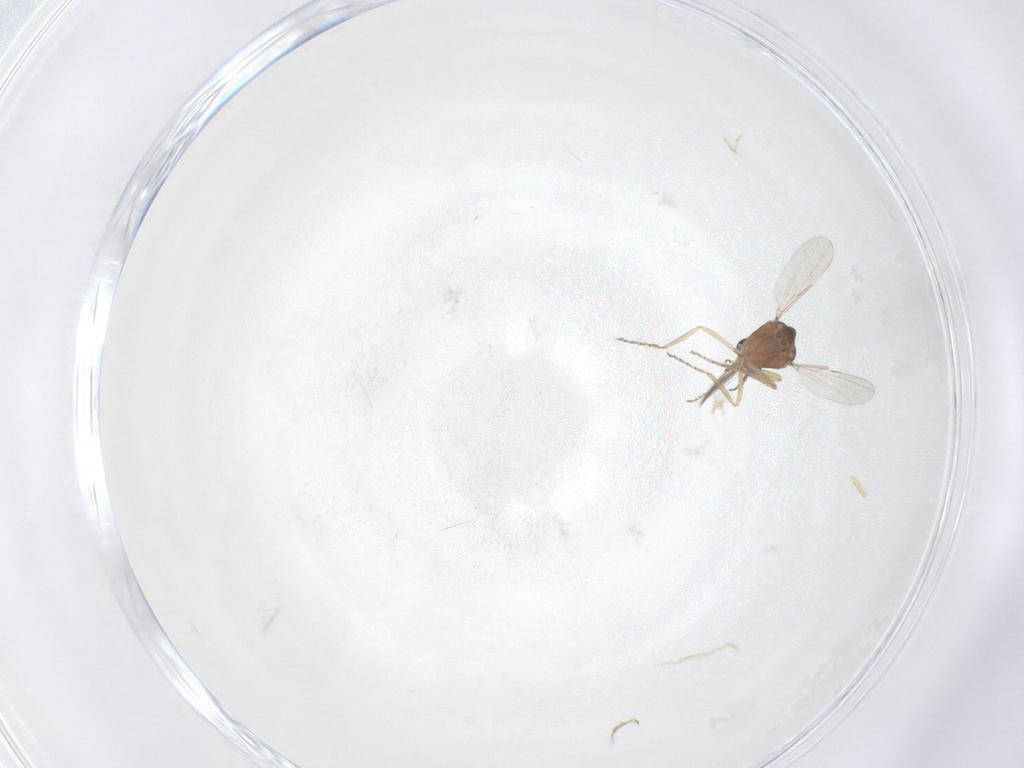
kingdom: Animalia
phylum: Arthropoda
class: Insecta
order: Diptera
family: Ceratopogonidae
